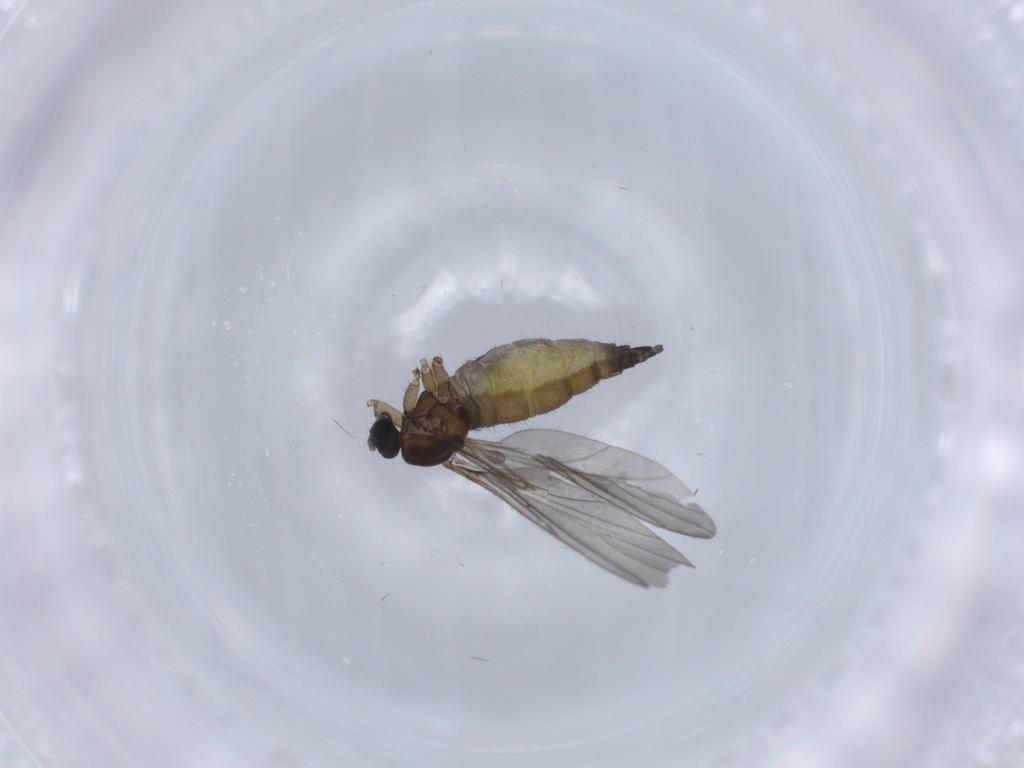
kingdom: Animalia
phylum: Arthropoda
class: Insecta
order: Diptera
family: Sciaridae
